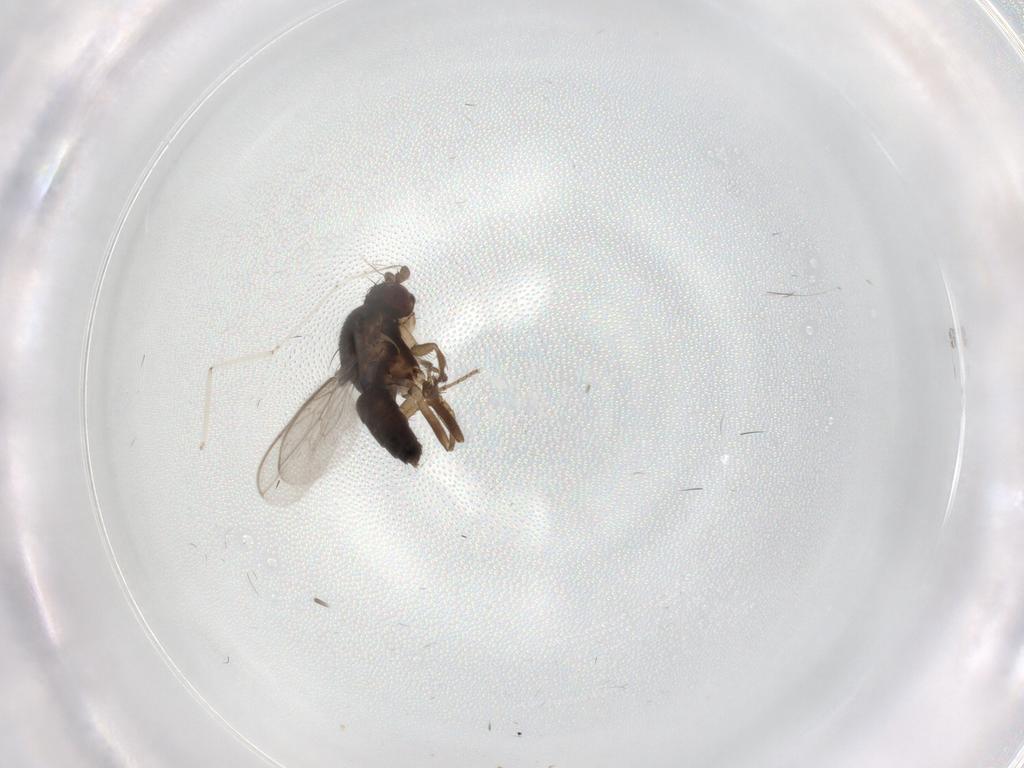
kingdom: Animalia
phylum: Arthropoda
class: Insecta
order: Diptera
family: Sphaeroceridae
